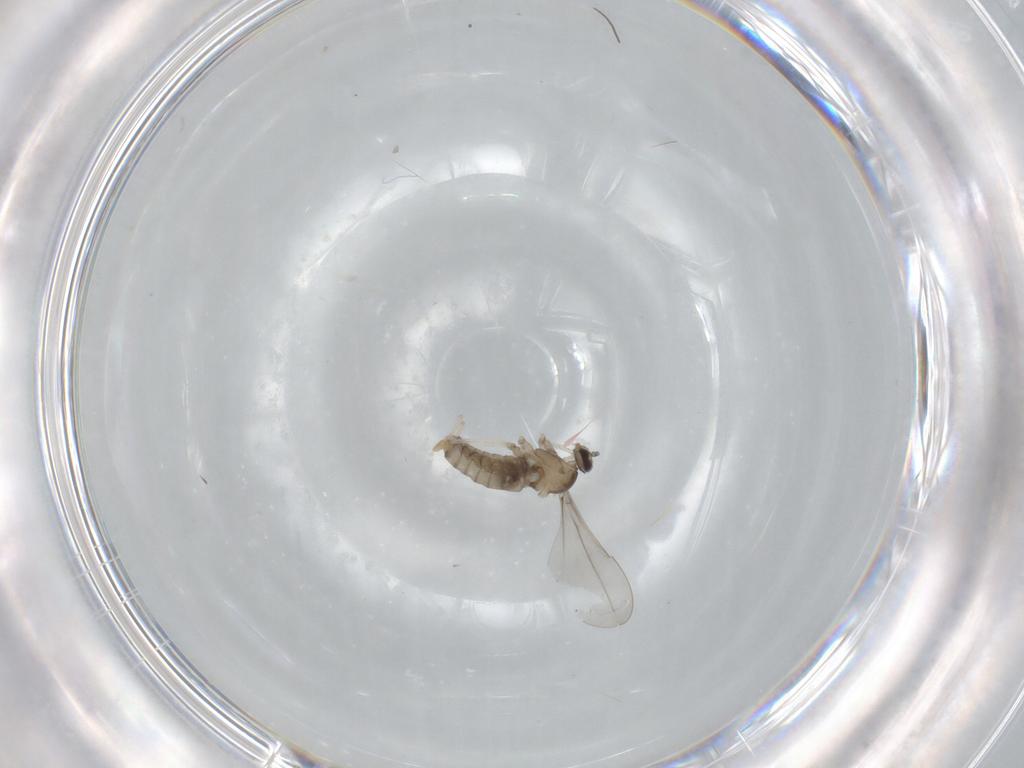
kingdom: Animalia
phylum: Arthropoda
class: Insecta
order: Diptera
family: Cecidomyiidae
